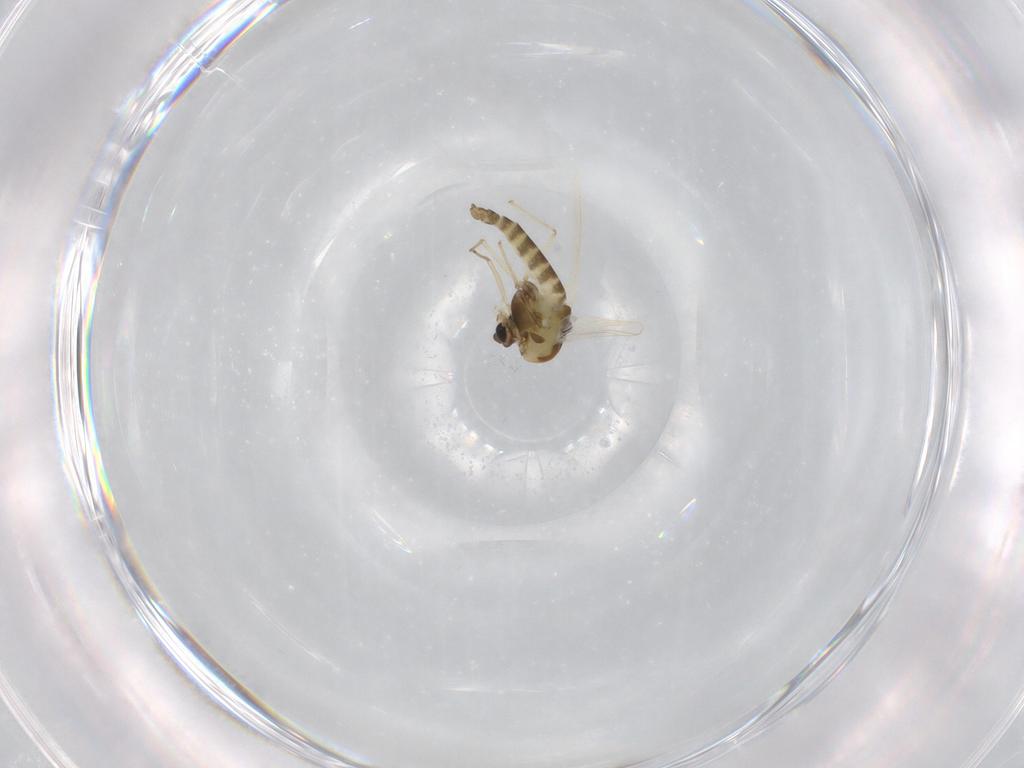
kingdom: Animalia
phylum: Arthropoda
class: Insecta
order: Diptera
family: Chironomidae
